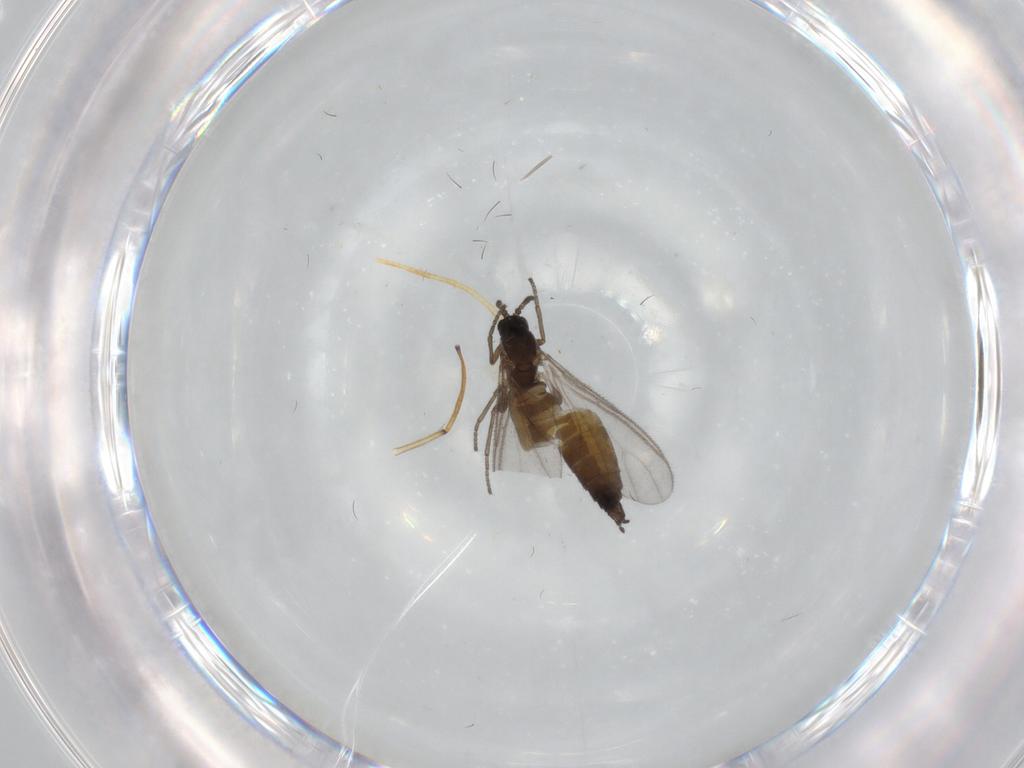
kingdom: Animalia
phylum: Arthropoda
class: Insecta
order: Diptera
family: Sciaridae
